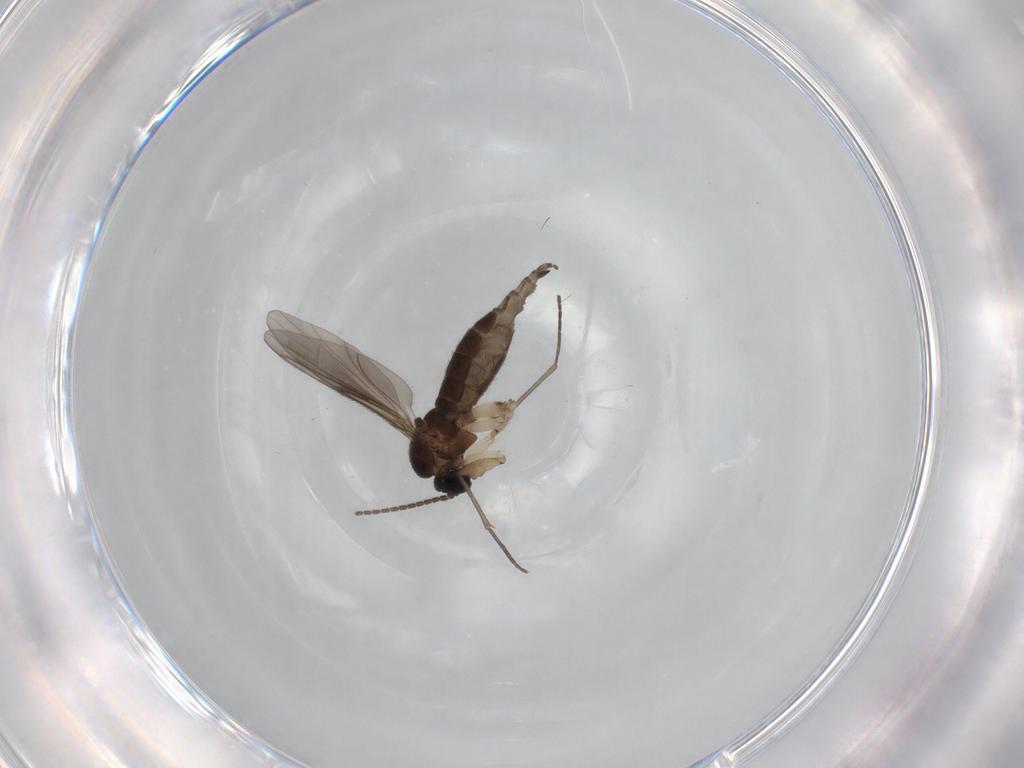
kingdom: Animalia
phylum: Arthropoda
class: Insecta
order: Diptera
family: Sciaridae
